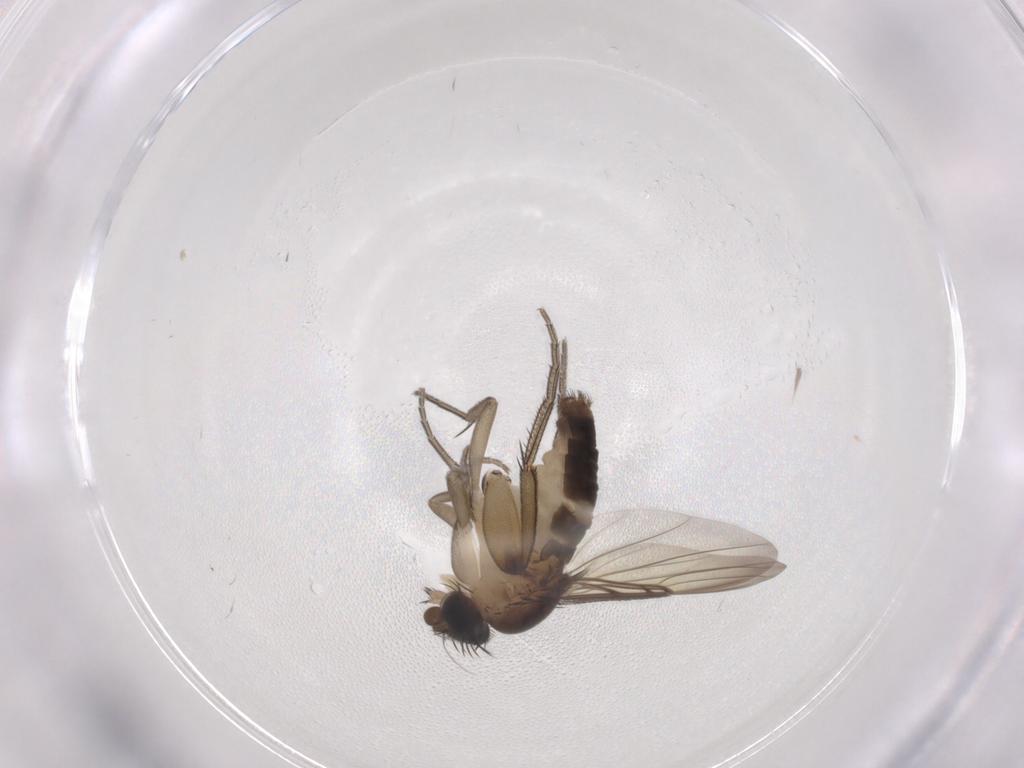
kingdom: Animalia
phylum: Arthropoda
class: Insecta
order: Diptera
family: Phoridae
